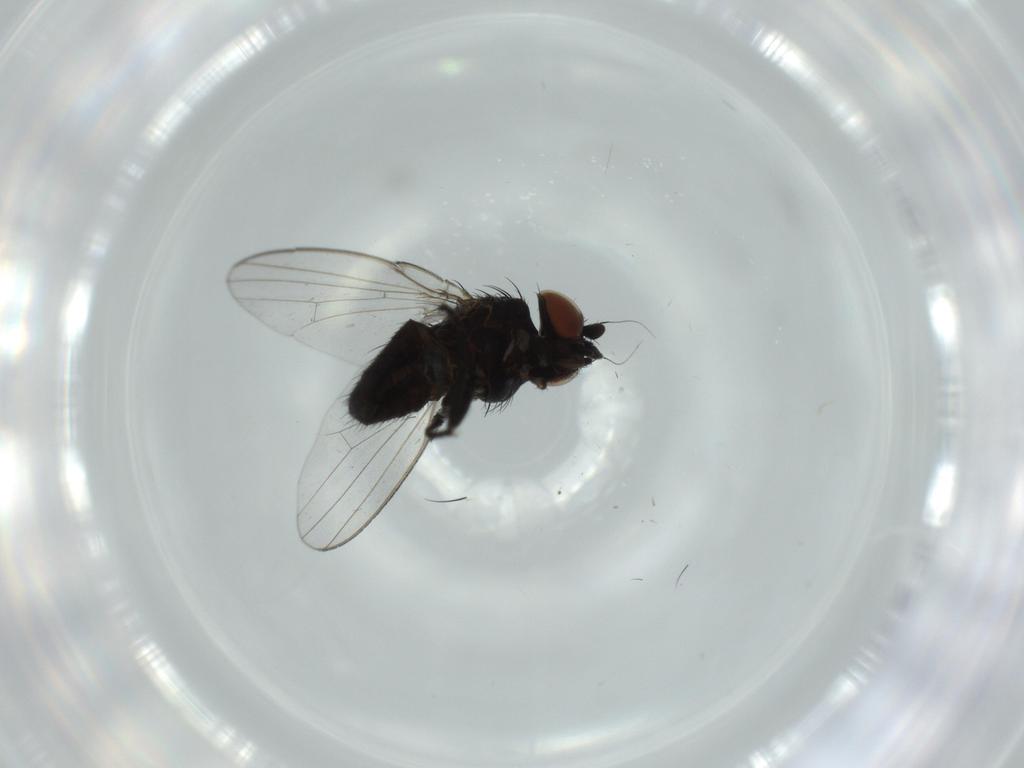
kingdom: Animalia
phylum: Arthropoda
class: Insecta
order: Diptera
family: Milichiidae
